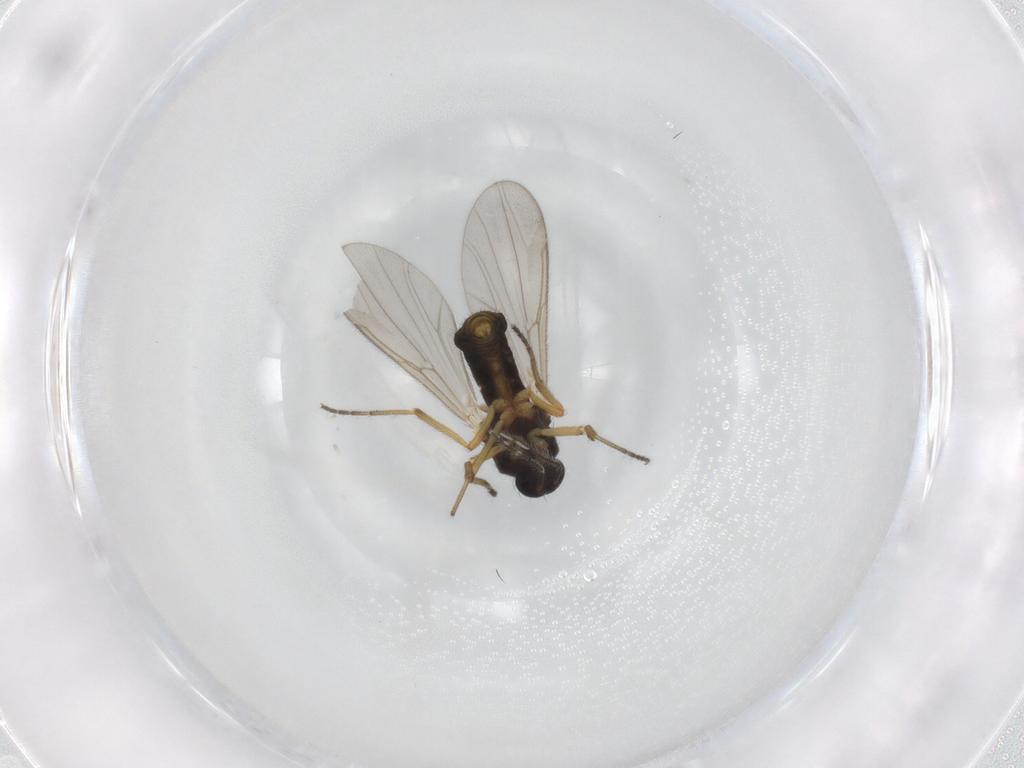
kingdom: Animalia
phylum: Arthropoda
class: Insecta
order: Diptera
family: Ceratopogonidae
